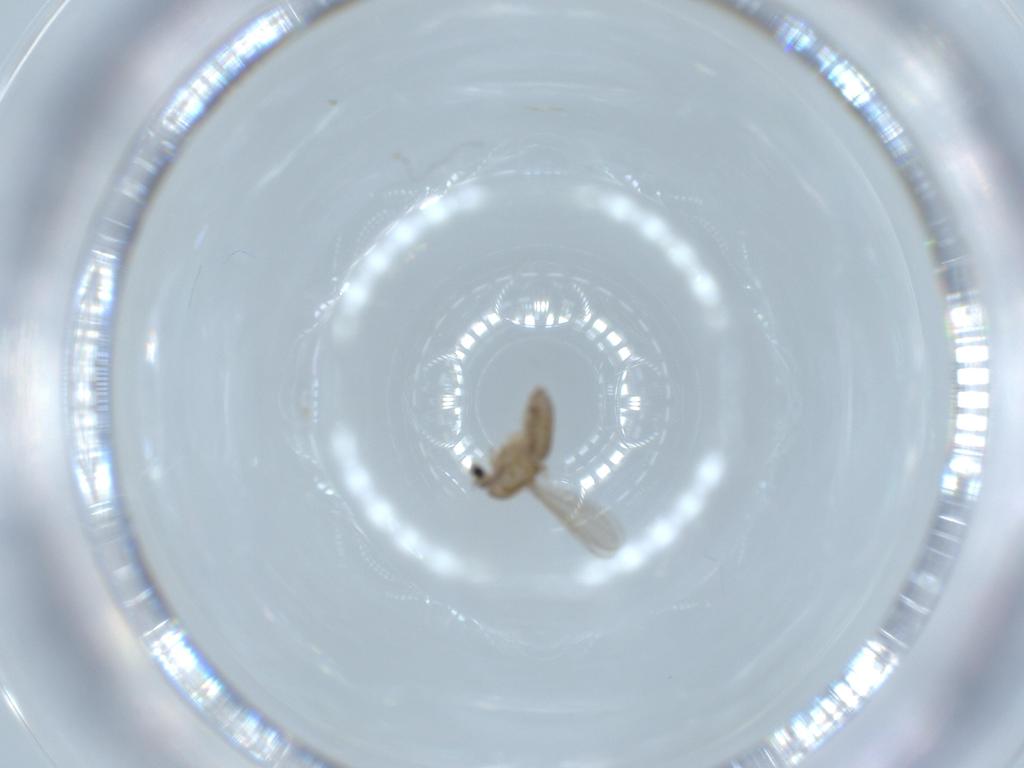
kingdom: Animalia
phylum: Arthropoda
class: Insecta
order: Diptera
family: Chironomidae
